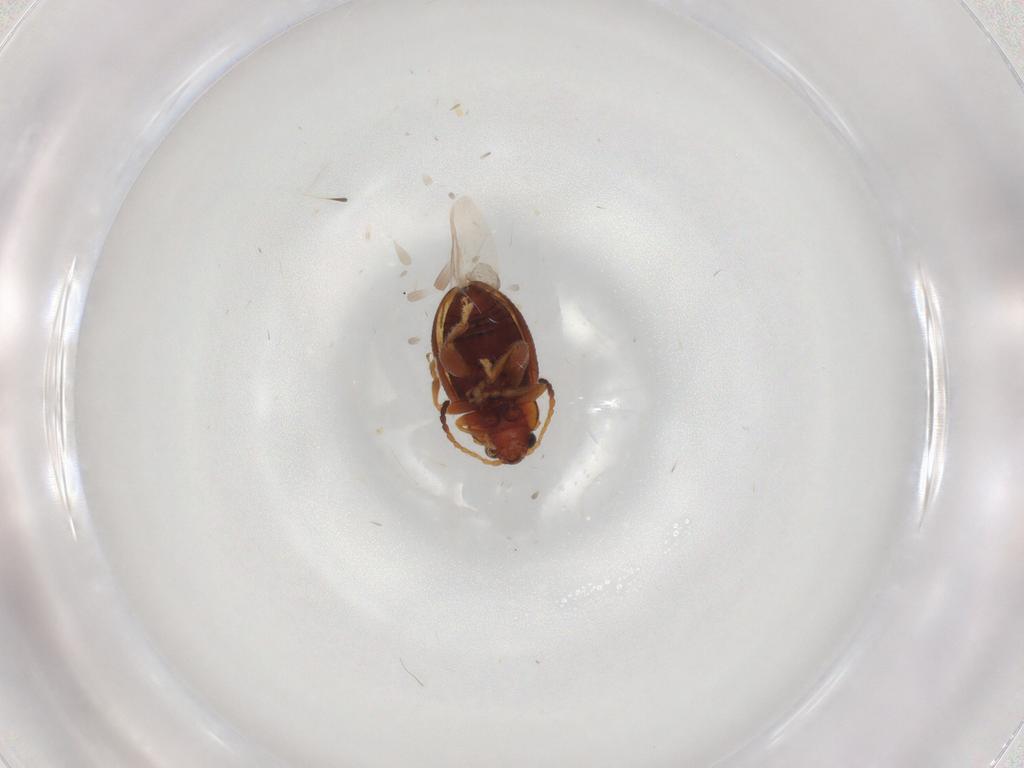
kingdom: Animalia
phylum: Arthropoda
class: Insecta
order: Coleoptera
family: Chrysomelidae
